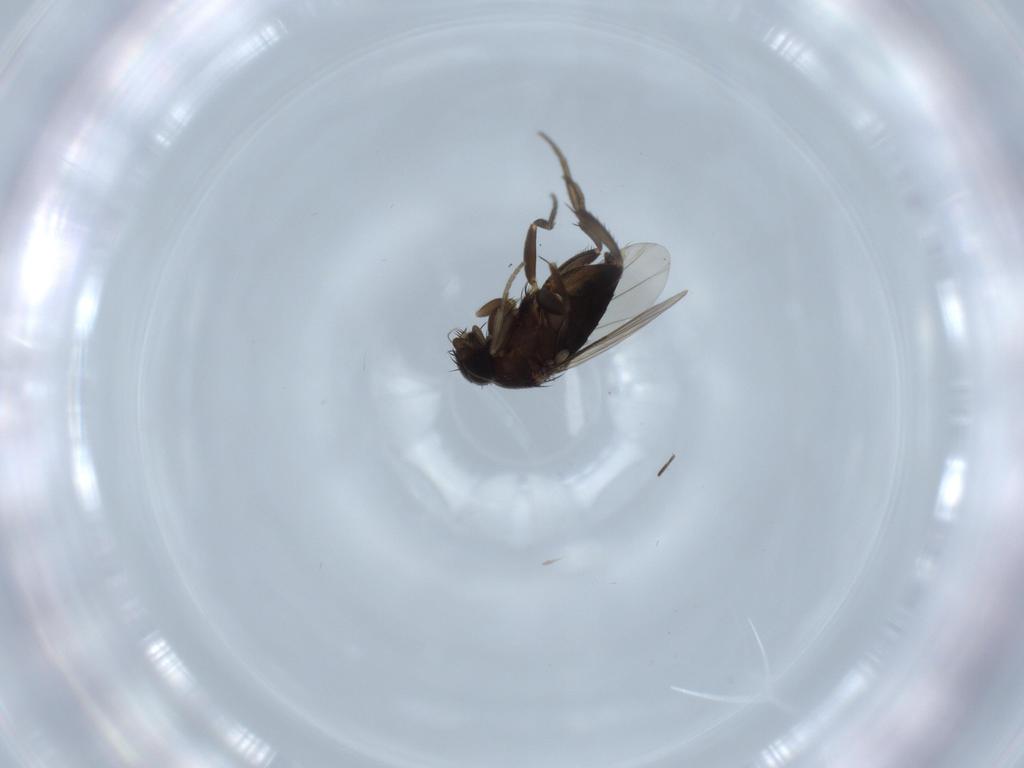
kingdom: Animalia
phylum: Arthropoda
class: Insecta
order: Diptera
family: Phoridae
